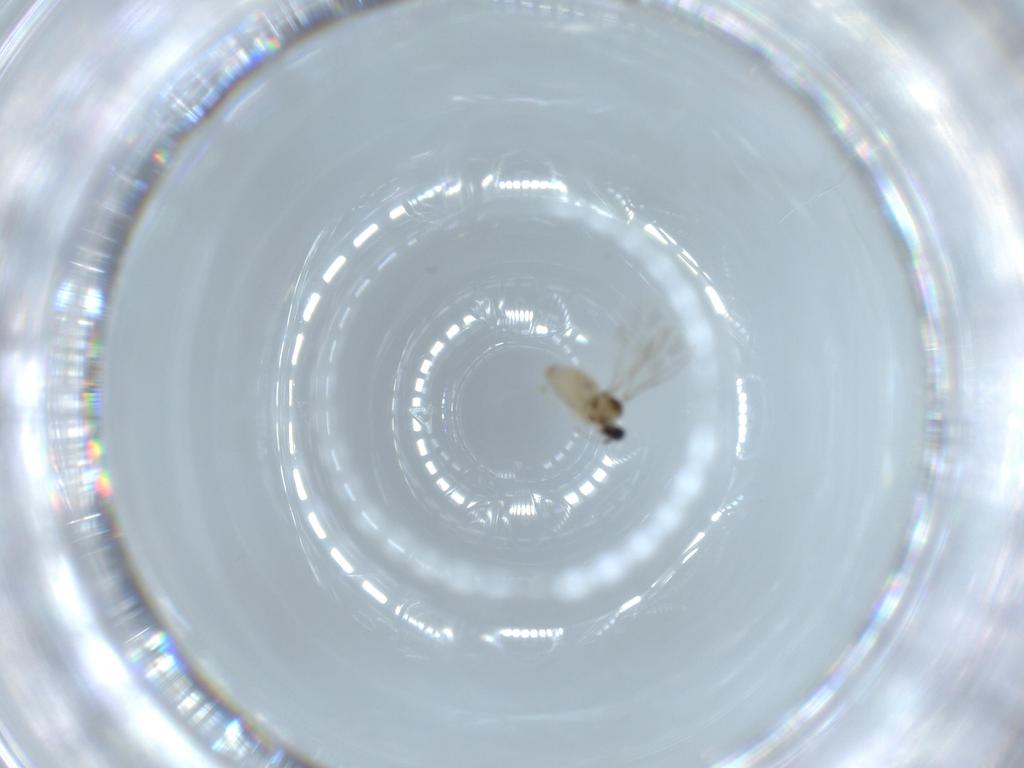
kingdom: Animalia
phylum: Arthropoda
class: Insecta
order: Diptera
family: Cecidomyiidae
